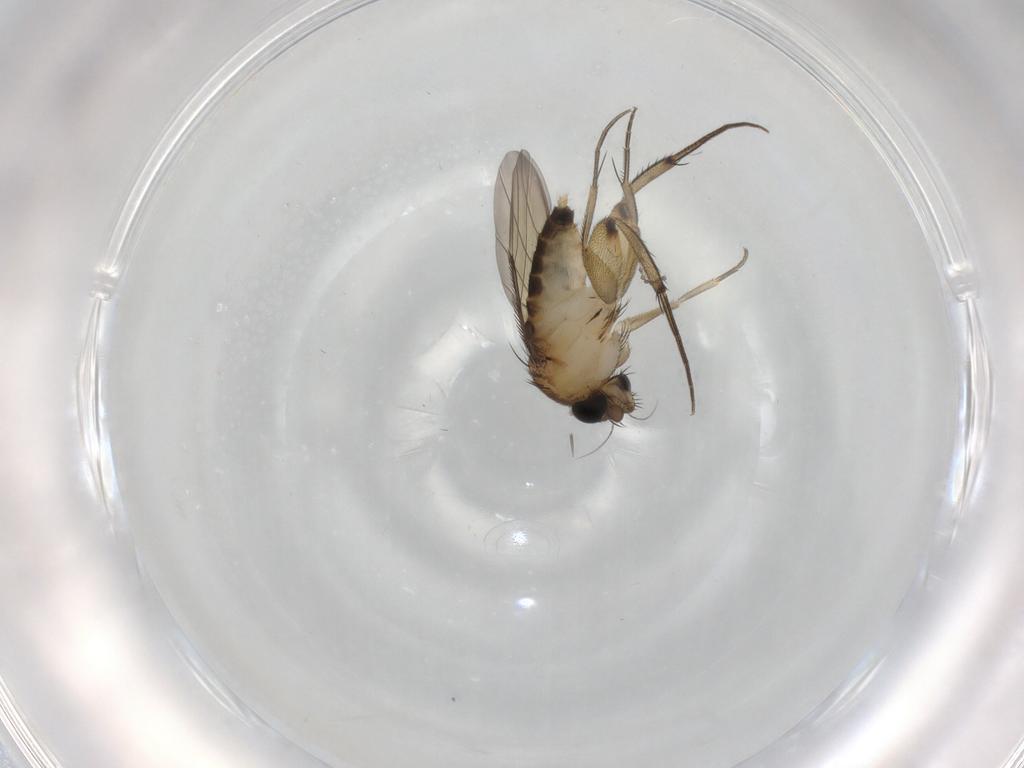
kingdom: Animalia
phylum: Arthropoda
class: Insecta
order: Diptera
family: Phoridae
